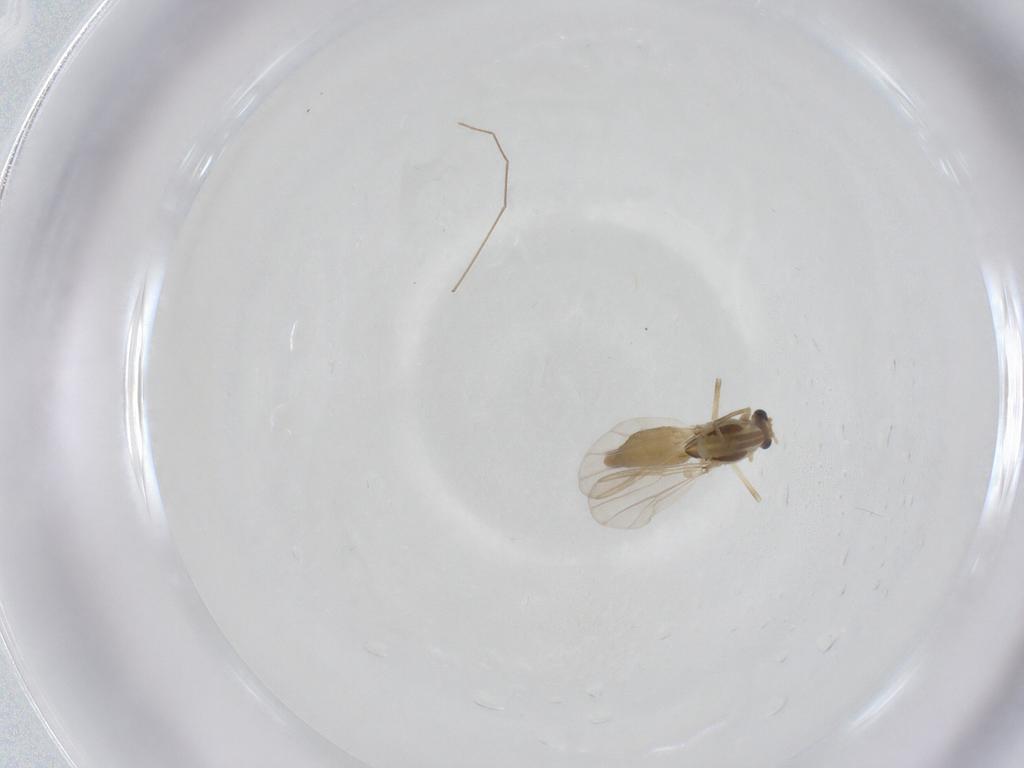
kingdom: Animalia
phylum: Arthropoda
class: Insecta
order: Diptera
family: Chironomidae
